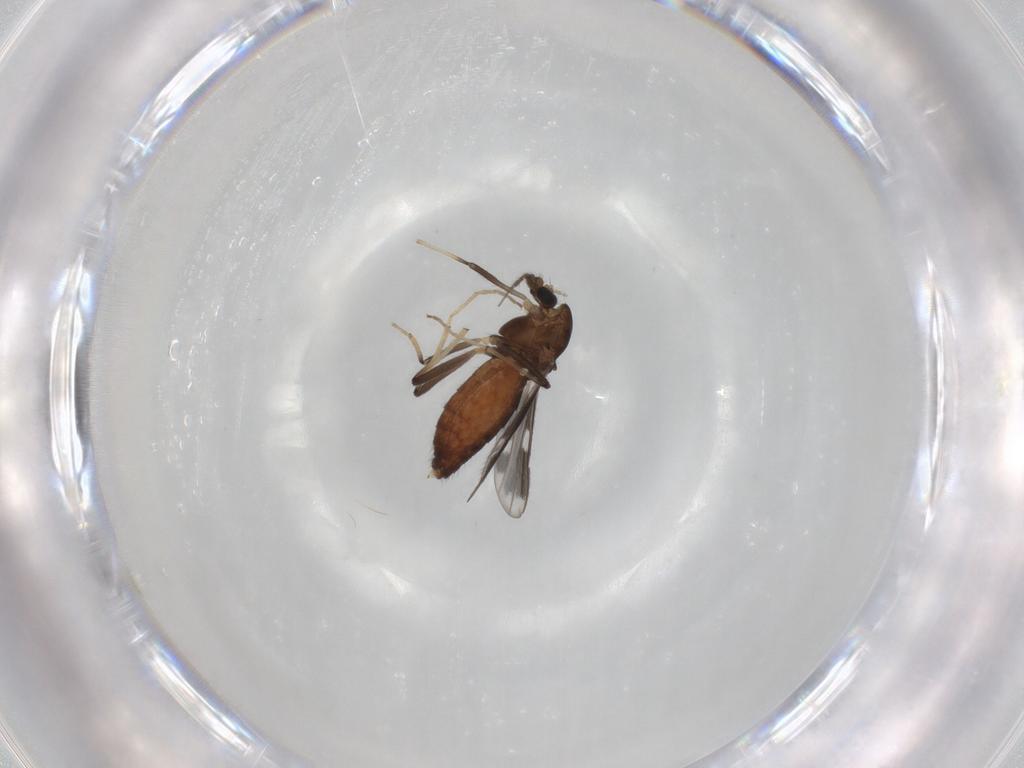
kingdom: Animalia
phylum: Arthropoda
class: Insecta
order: Diptera
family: Chironomidae
